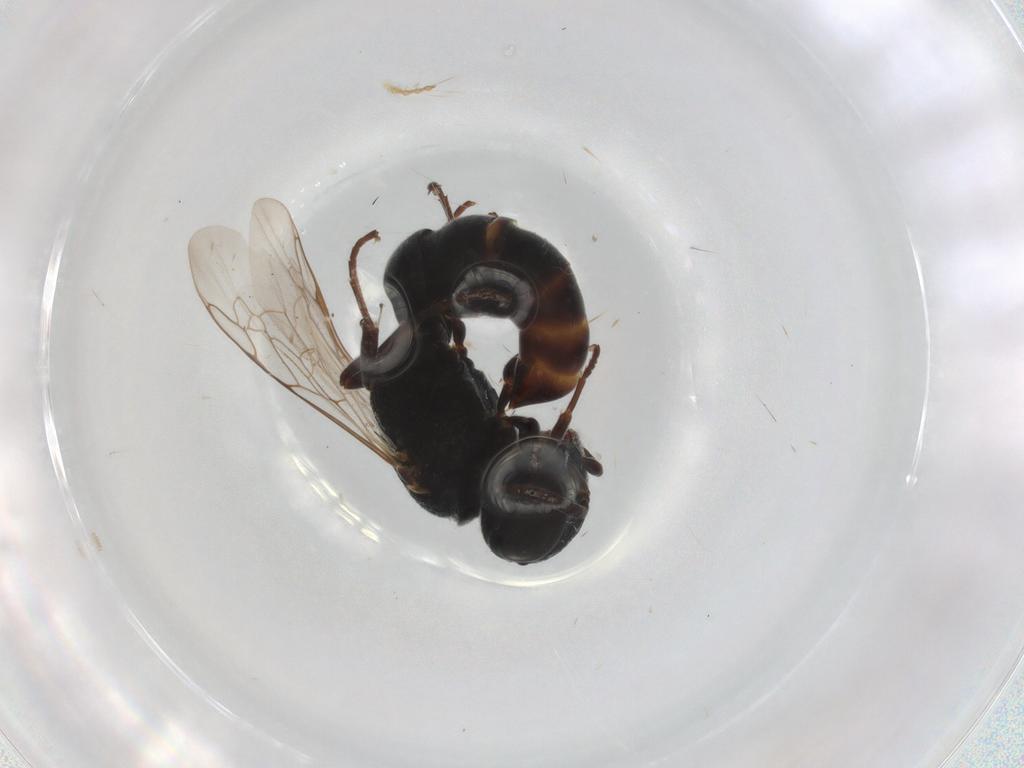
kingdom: Animalia
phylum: Arthropoda
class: Insecta
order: Hymenoptera
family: Crabronidae
